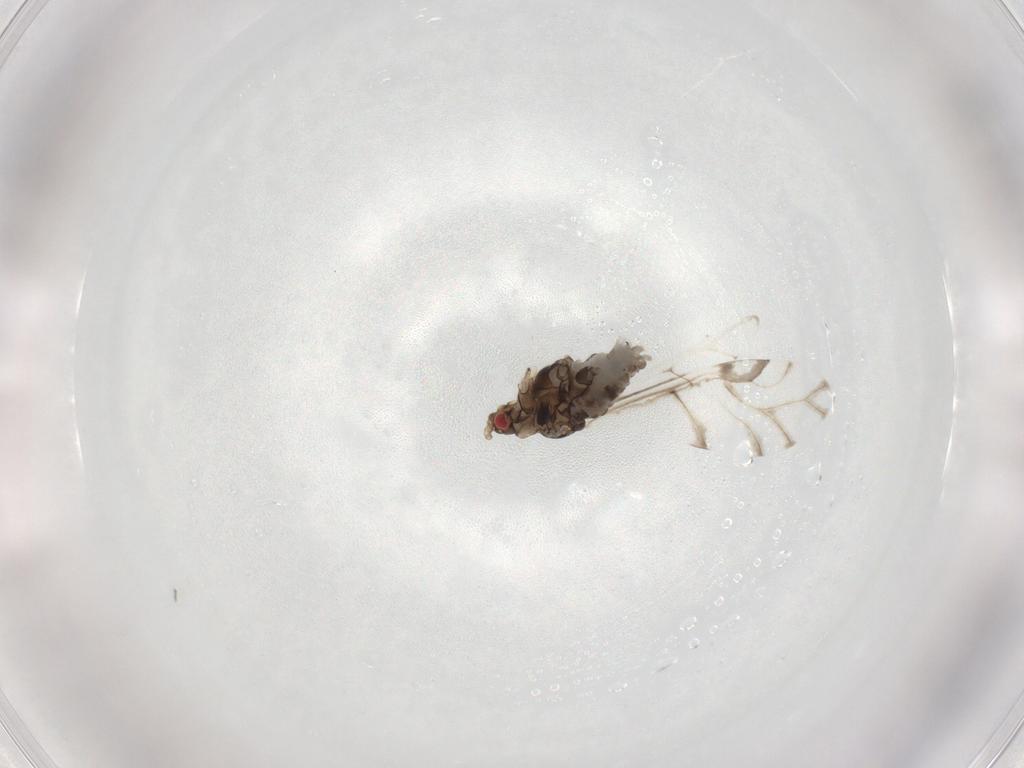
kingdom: Animalia
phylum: Arthropoda
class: Insecta
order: Hemiptera
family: Aphididae
